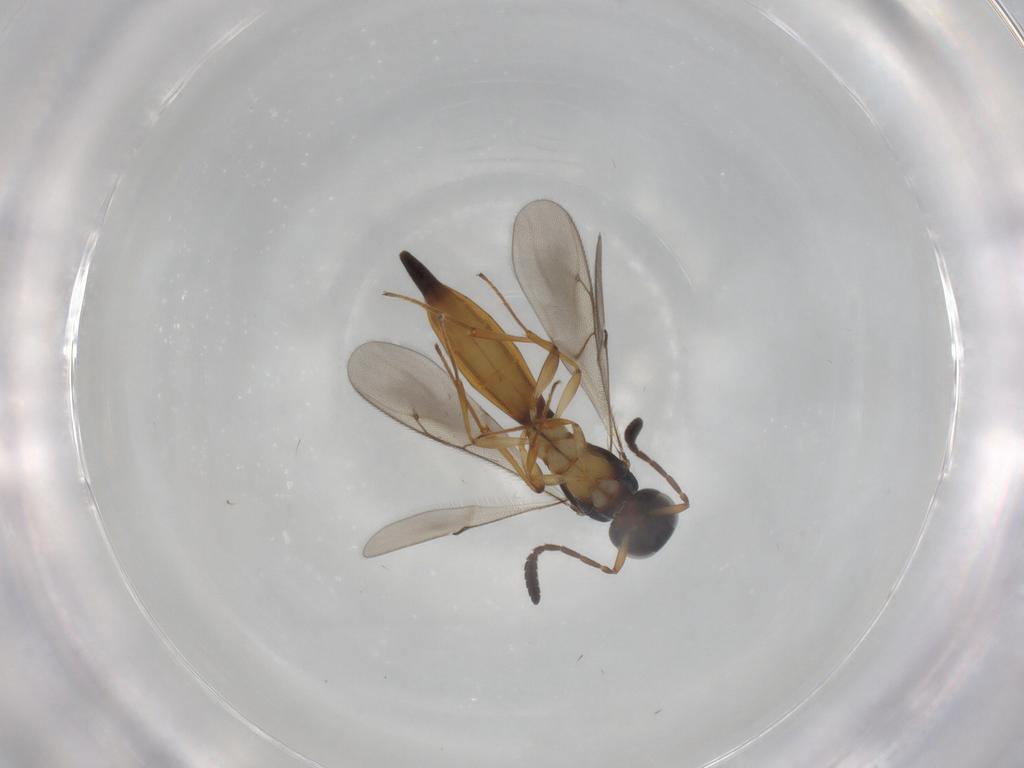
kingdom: Animalia
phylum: Arthropoda
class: Insecta
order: Hymenoptera
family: Scelionidae
